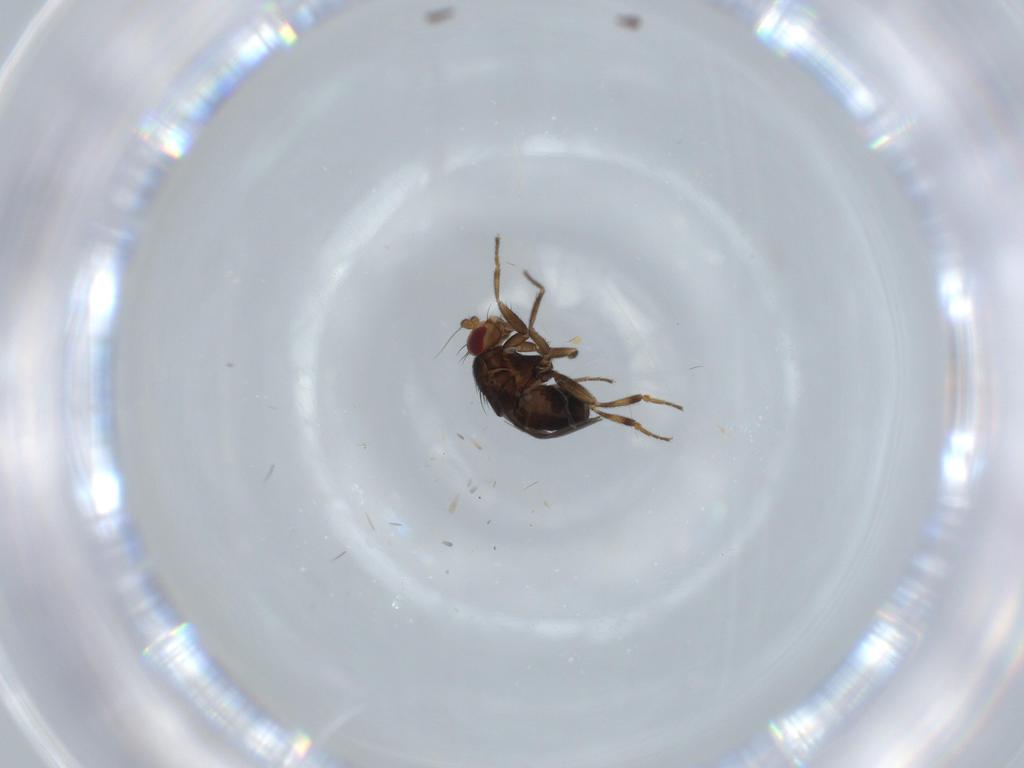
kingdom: Animalia
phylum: Arthropoda
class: Insecta
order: Diptera
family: Sphaeroceridae
